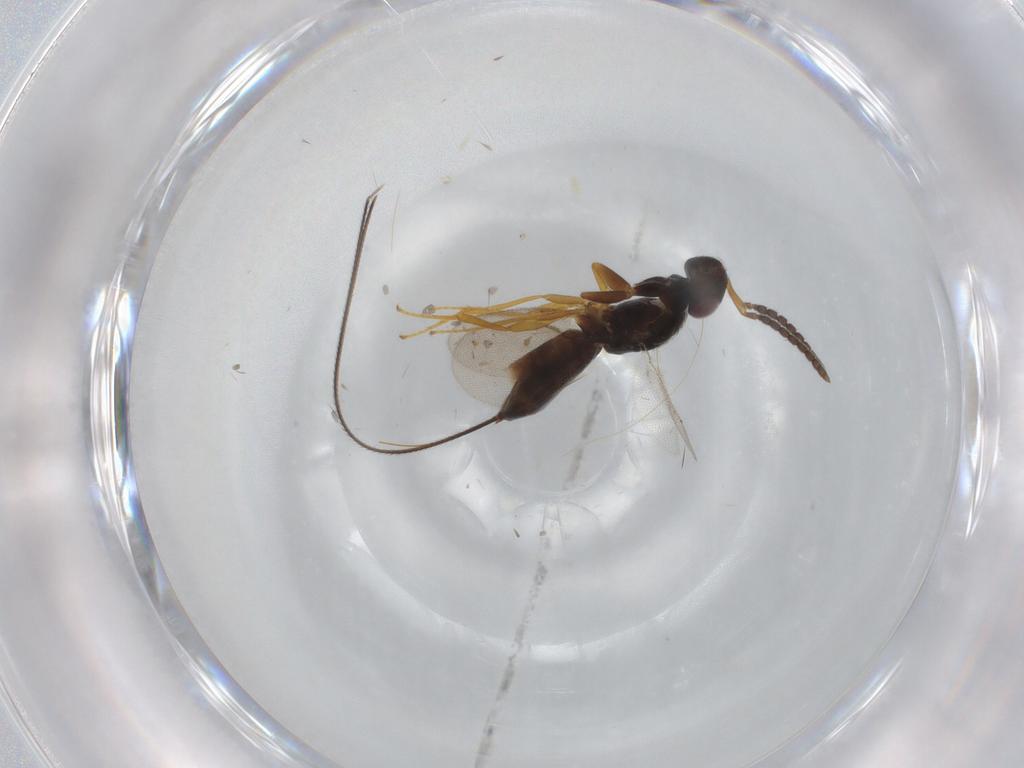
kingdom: Animalia
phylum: Arthropoda
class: Insecta
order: Hymenoptera
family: Pteromalidae
